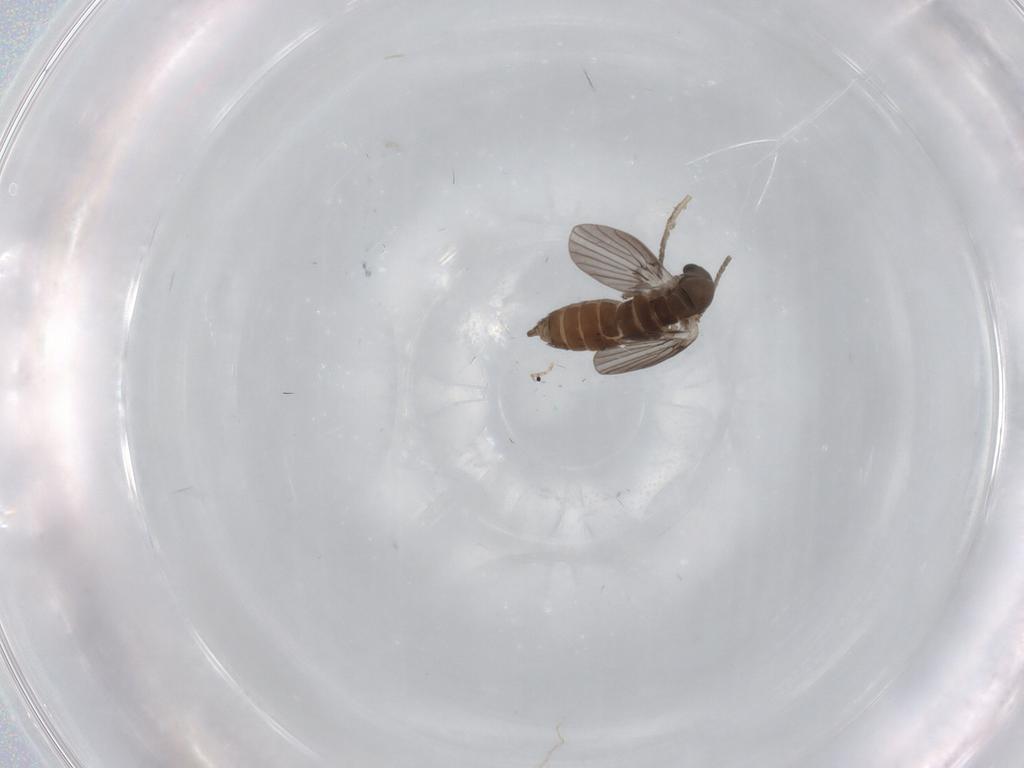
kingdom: Animalia
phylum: Arthropoda
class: Insecta
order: Diptera
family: Psychodidae
